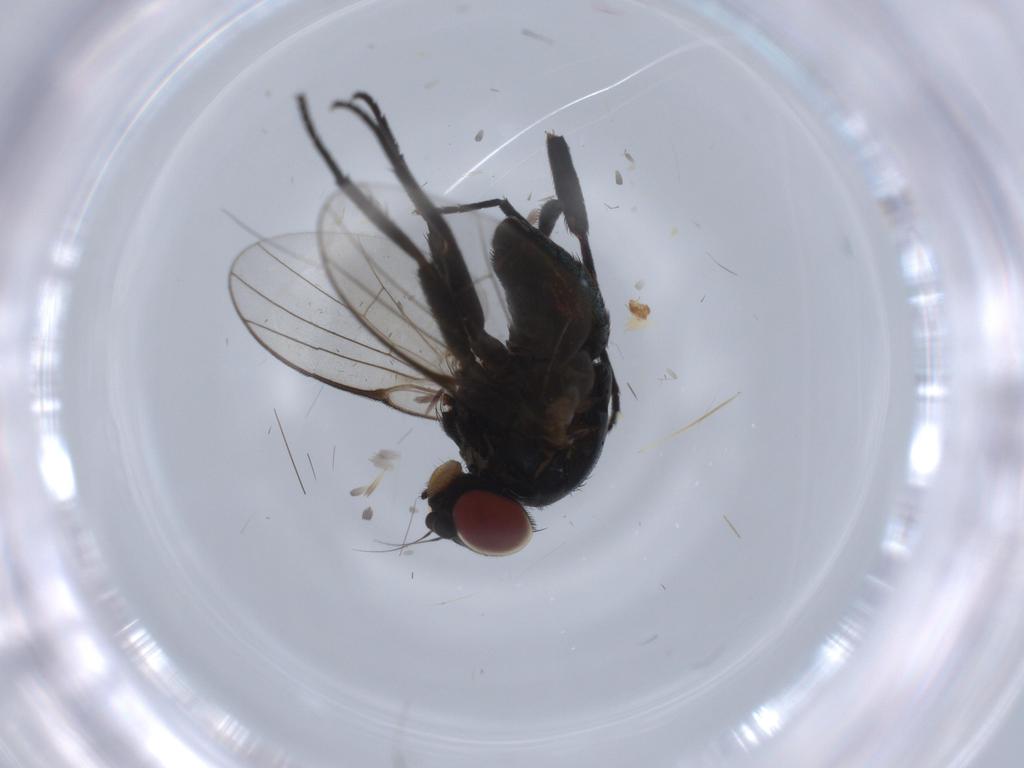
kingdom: Animalia
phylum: Arthropoda
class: Insecta
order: Diptera
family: Agromyzidae
